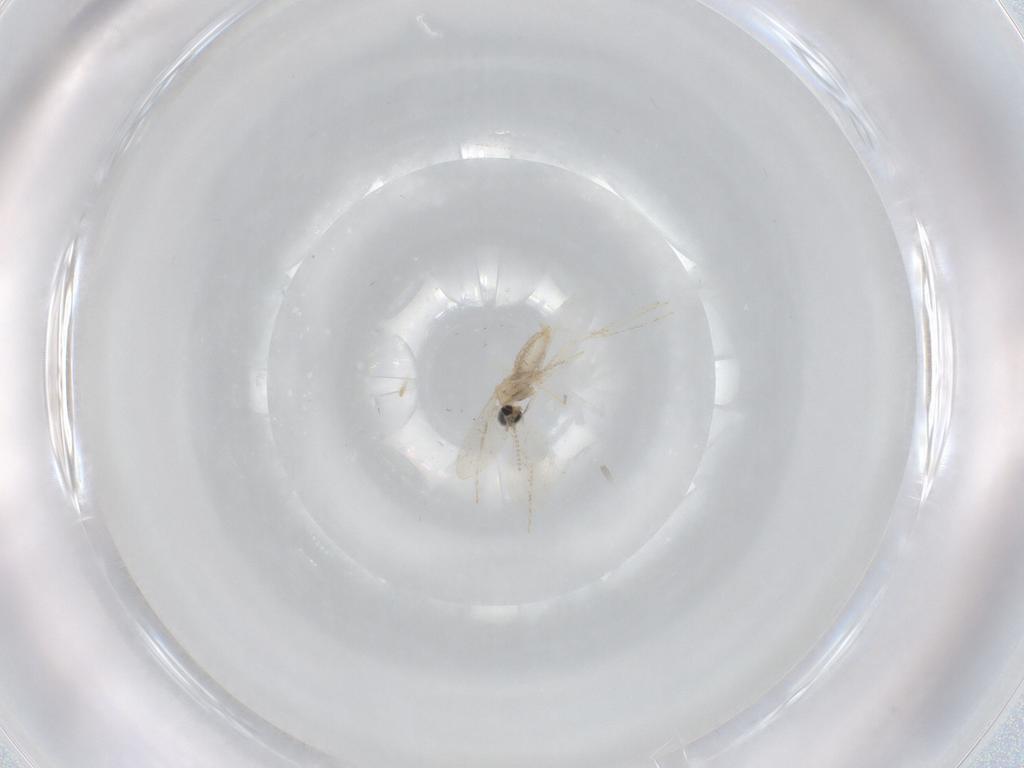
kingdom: Animalia
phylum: Arthropoda
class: Insecta
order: Diptera
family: Cecidomyiidae
